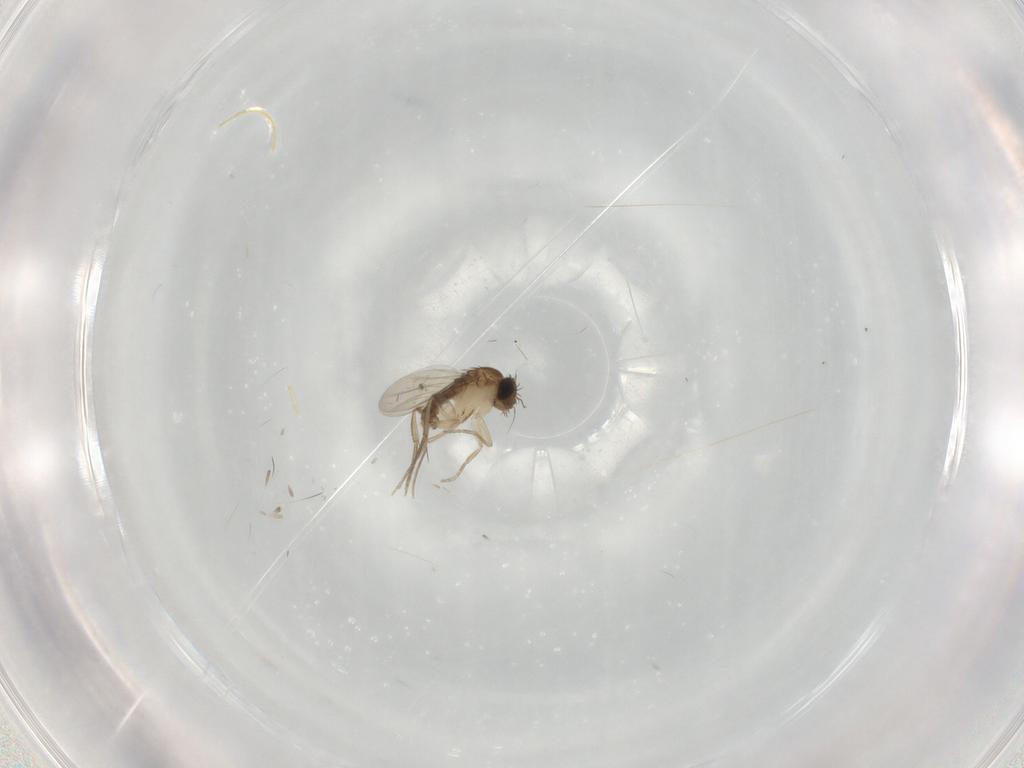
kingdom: Animalia
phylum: Arthropoda
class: Insecta
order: Diptera
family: Phoridae
